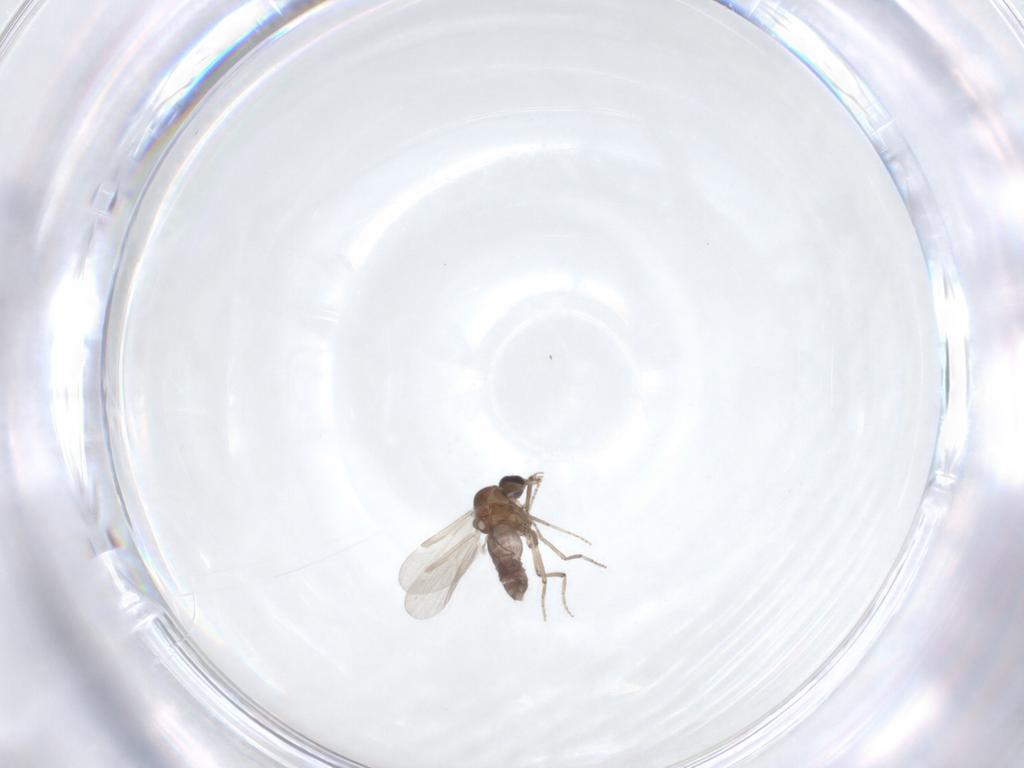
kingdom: Animalia
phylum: Arthropoda
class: Insecta
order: Diptera
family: Ceratopogonidae
